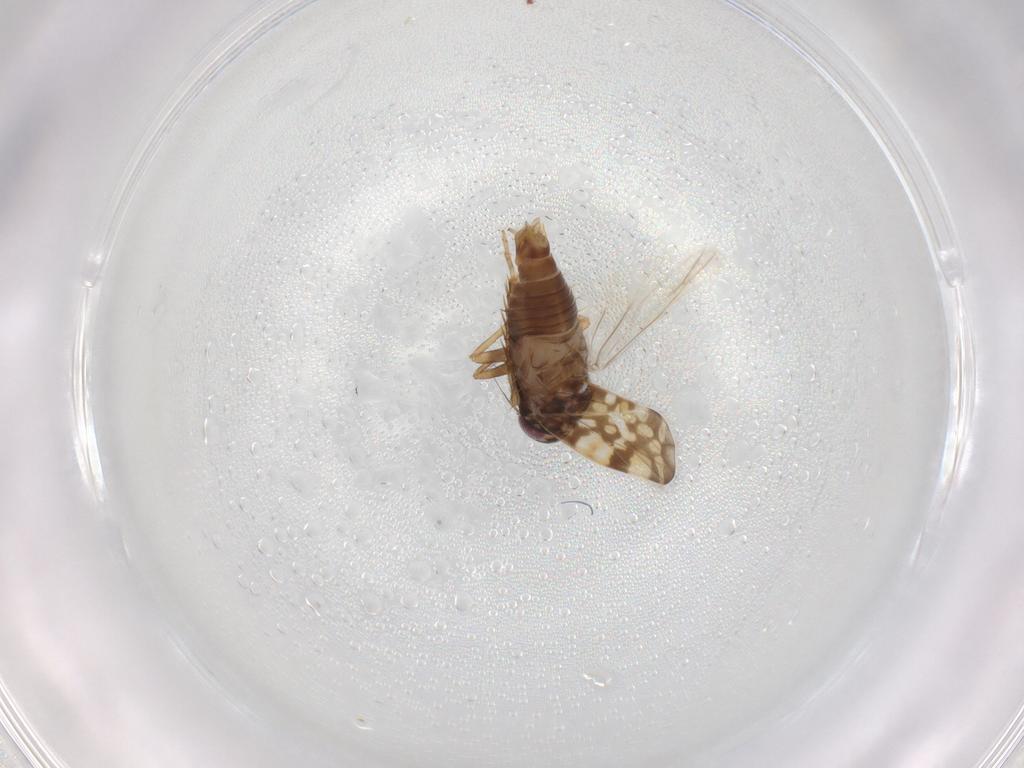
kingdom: Animalia
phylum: Arthropoda
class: Insecta
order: Hemiptera
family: Cicadellidae
